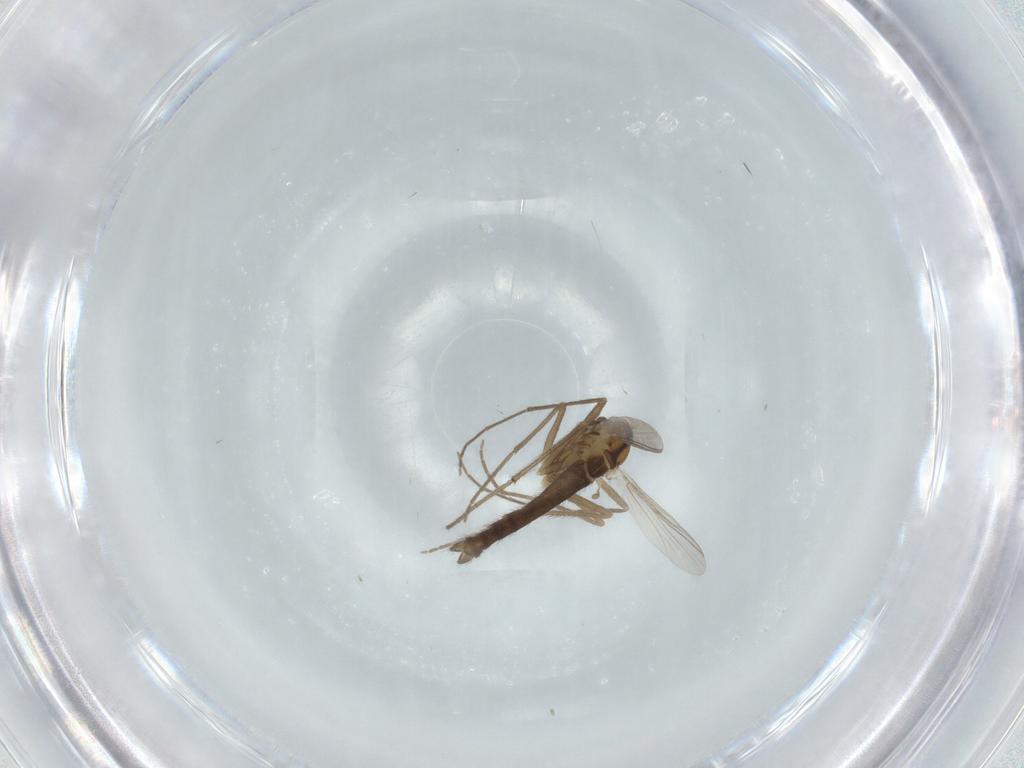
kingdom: Animalia
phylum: Arthropoda
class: Insecta
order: Diptera
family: Chironomidae
